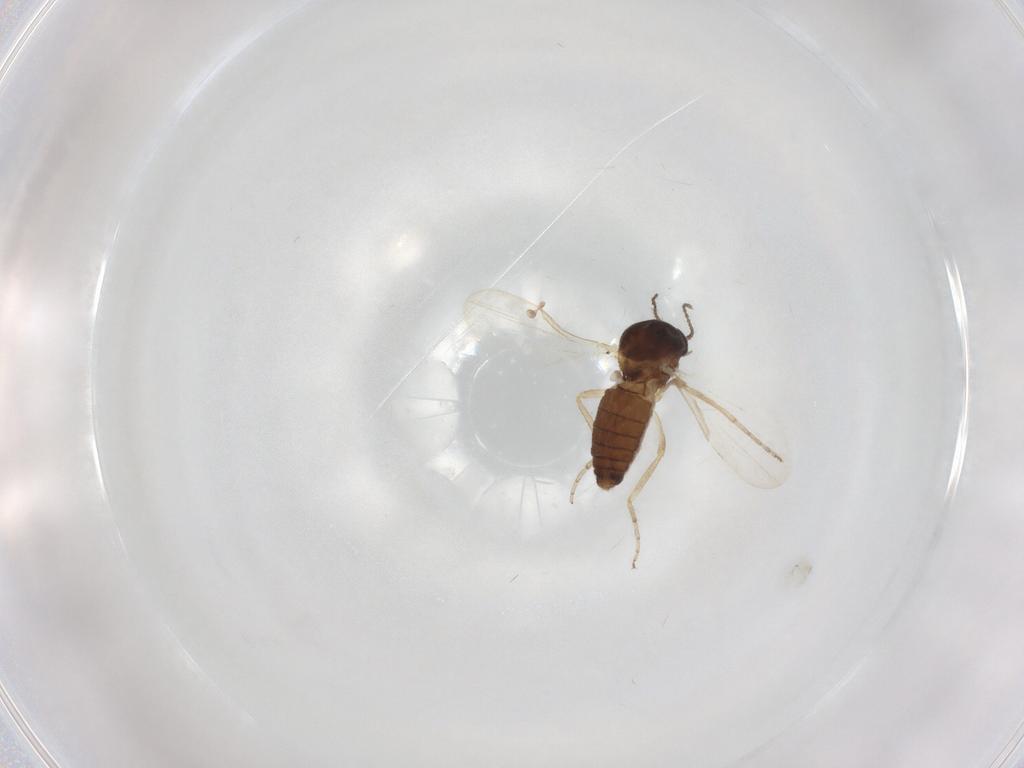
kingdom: Animalia
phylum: Arthropoda
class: Insecta
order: Diptera
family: Ceratopogonidae
